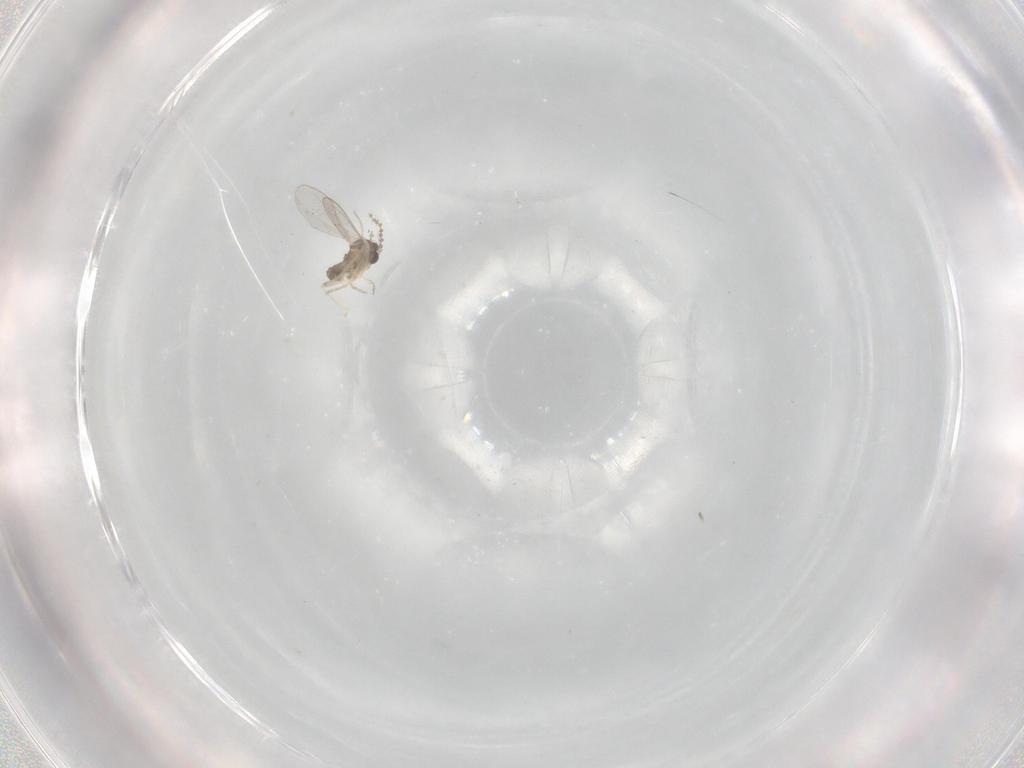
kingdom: Animalia
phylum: Arthropoda
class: Insecta
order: Diptera
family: Cecidomyiidae
